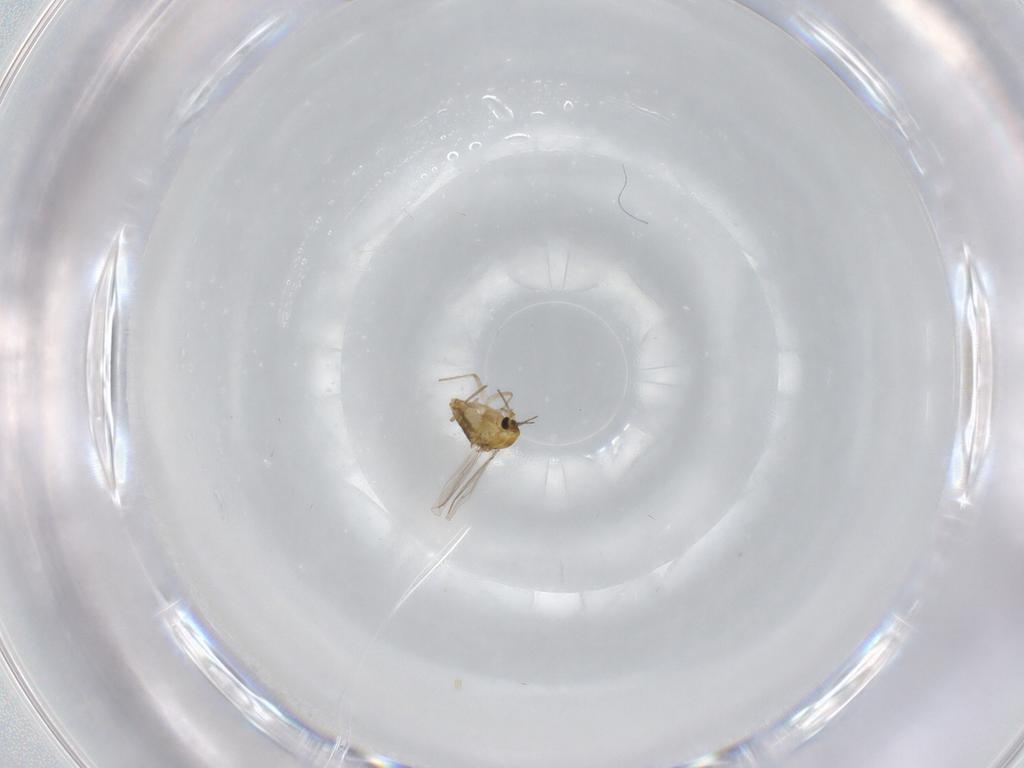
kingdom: Animalia
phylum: Arthropoda
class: Insecta
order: Diptera
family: Chironomidae
